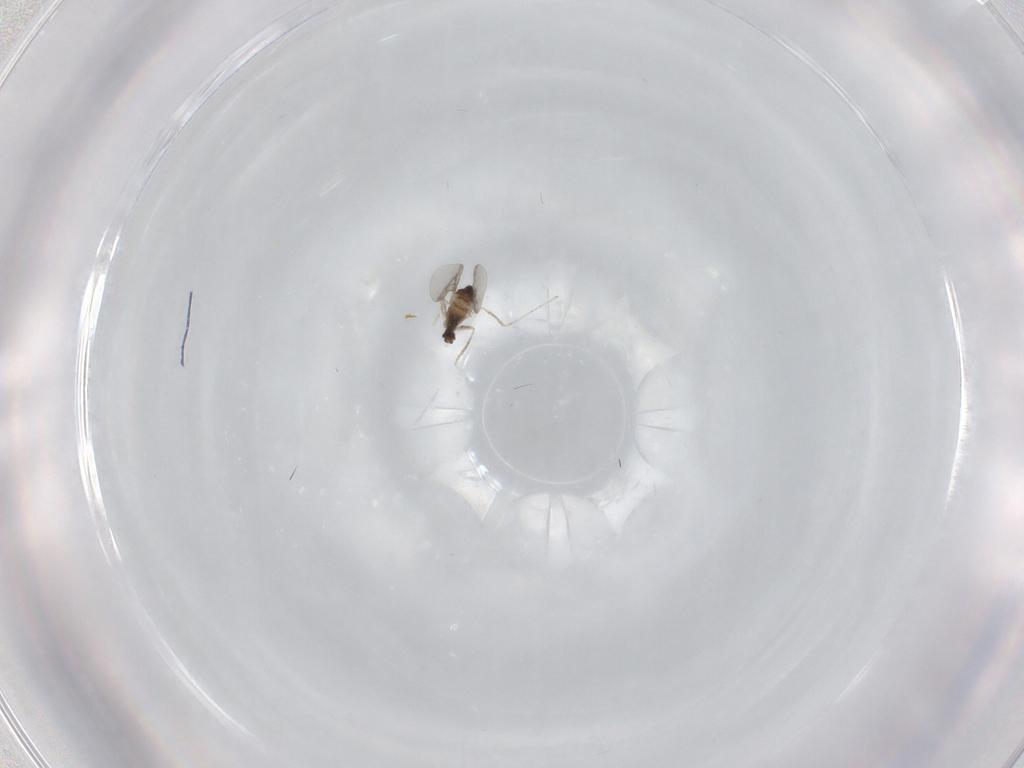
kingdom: Animalia
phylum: Arthropoda
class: Insecta
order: Diptera
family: Cecidomyiidae
